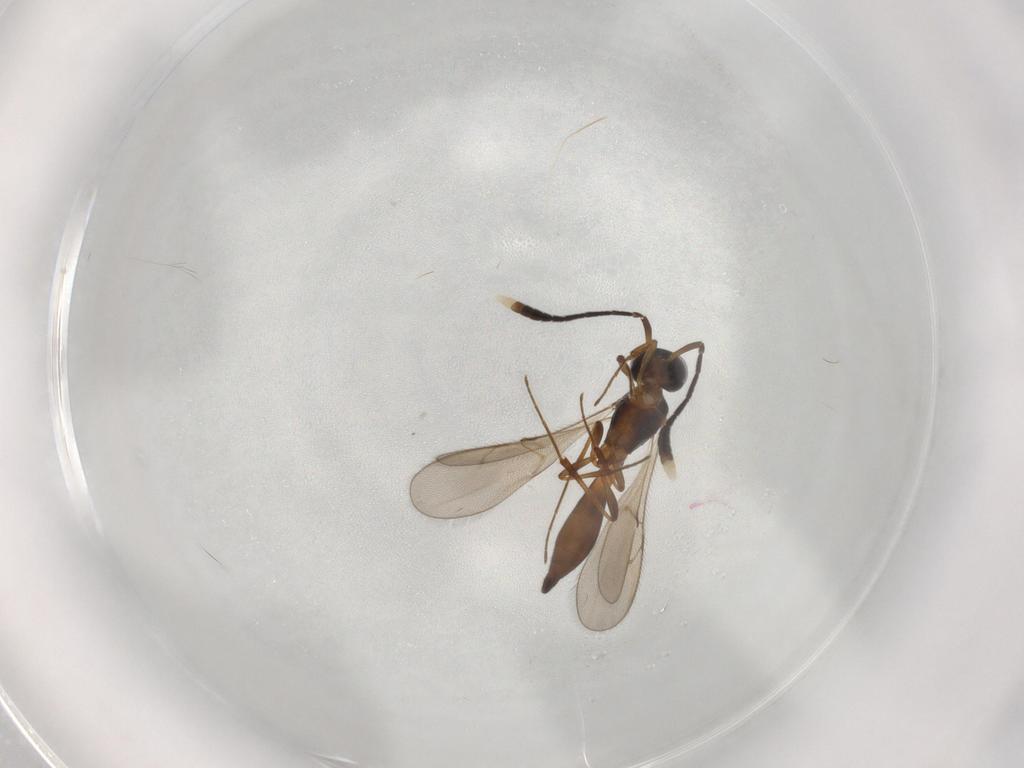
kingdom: Animalia
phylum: Arthropoda
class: Insecta
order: Hymenoptera
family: Scelionidae
